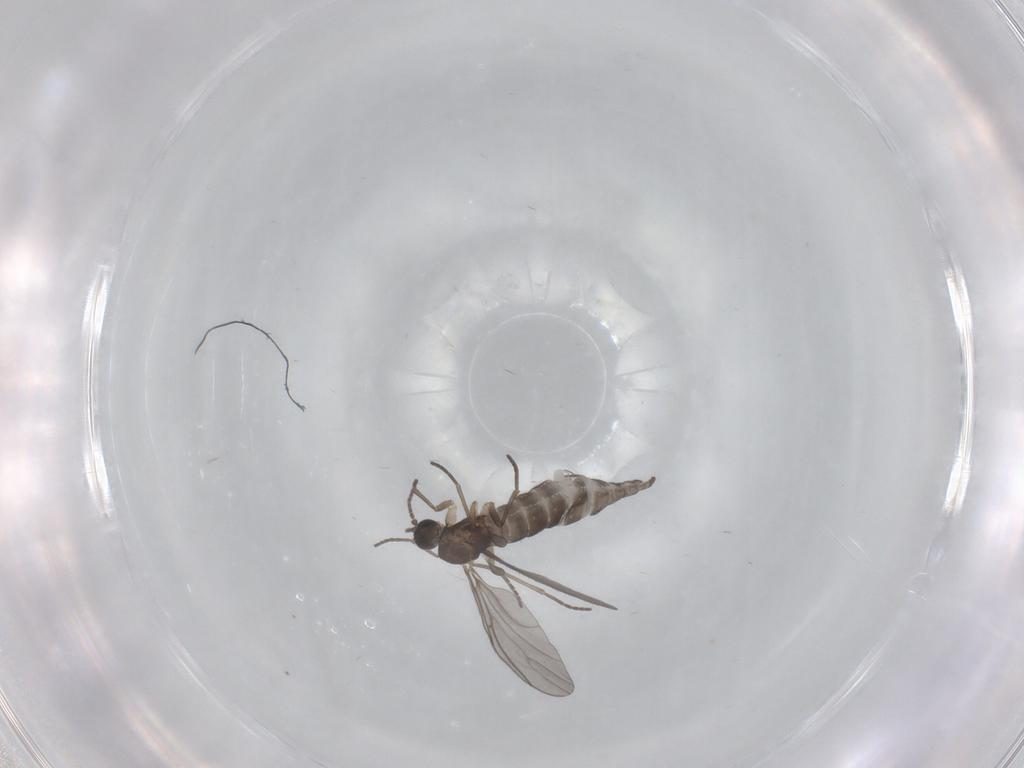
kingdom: Animalia
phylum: Arthropoda
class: Insecta
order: Diptera
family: Sciaridae
